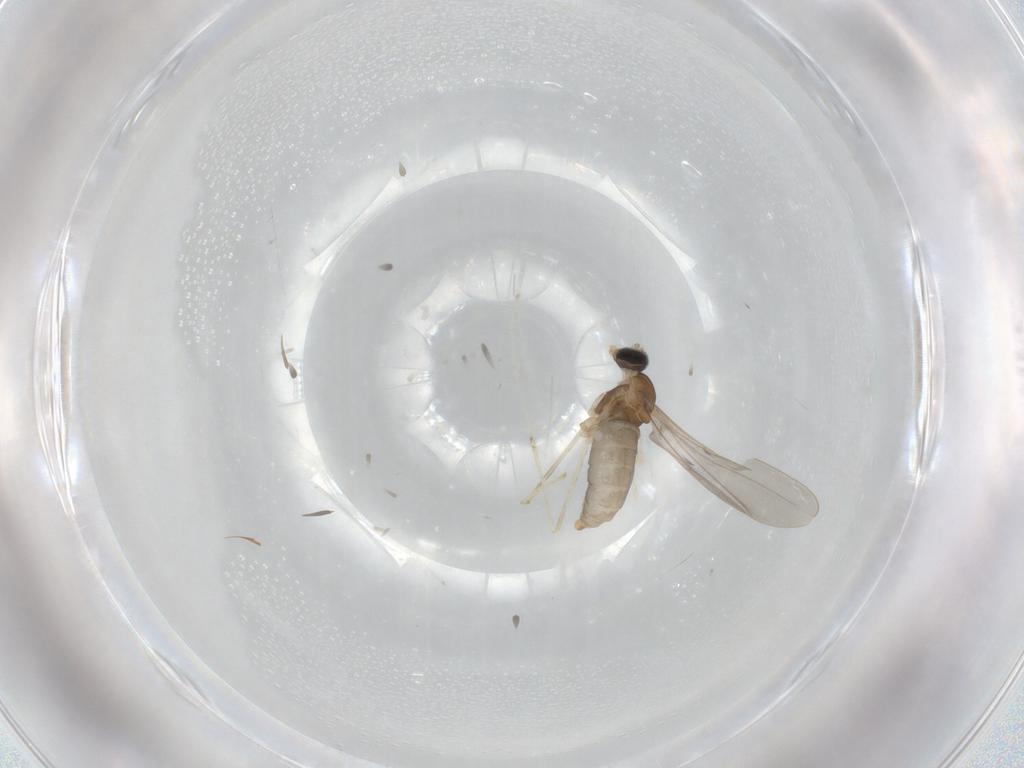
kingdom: Animalia
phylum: Arthropoda
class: Insecta
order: Diptera
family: Cecidomyiidae
